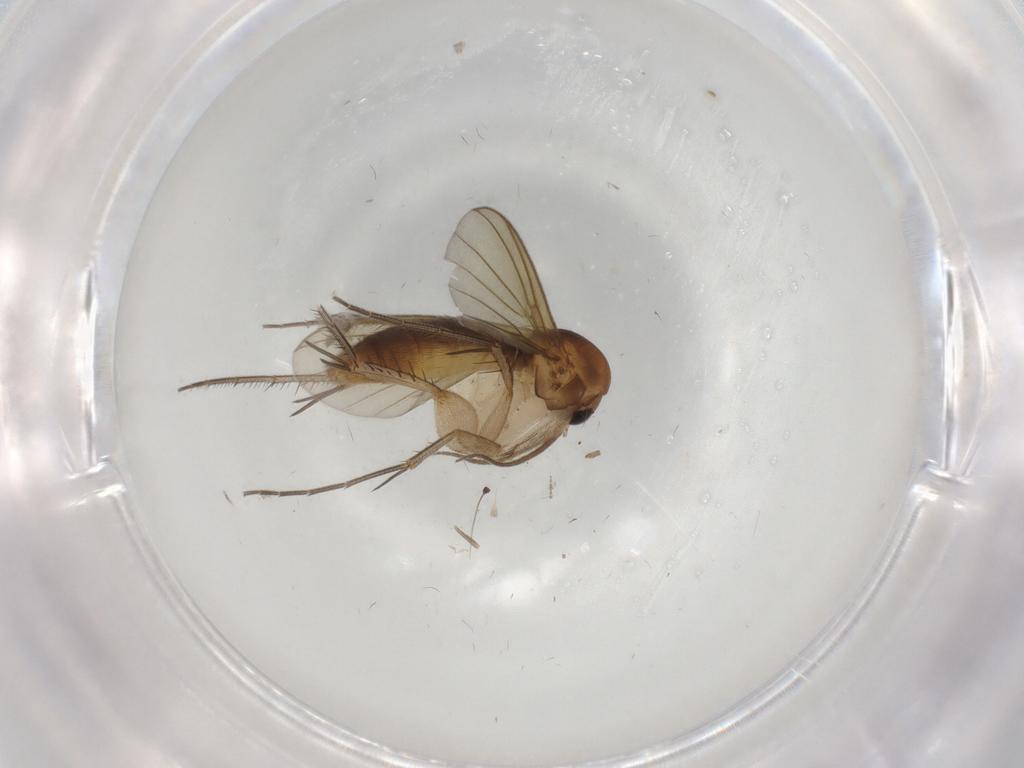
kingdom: Animalia
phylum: Arthropoda
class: Insecta
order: Diptera
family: Mycetophilidae
